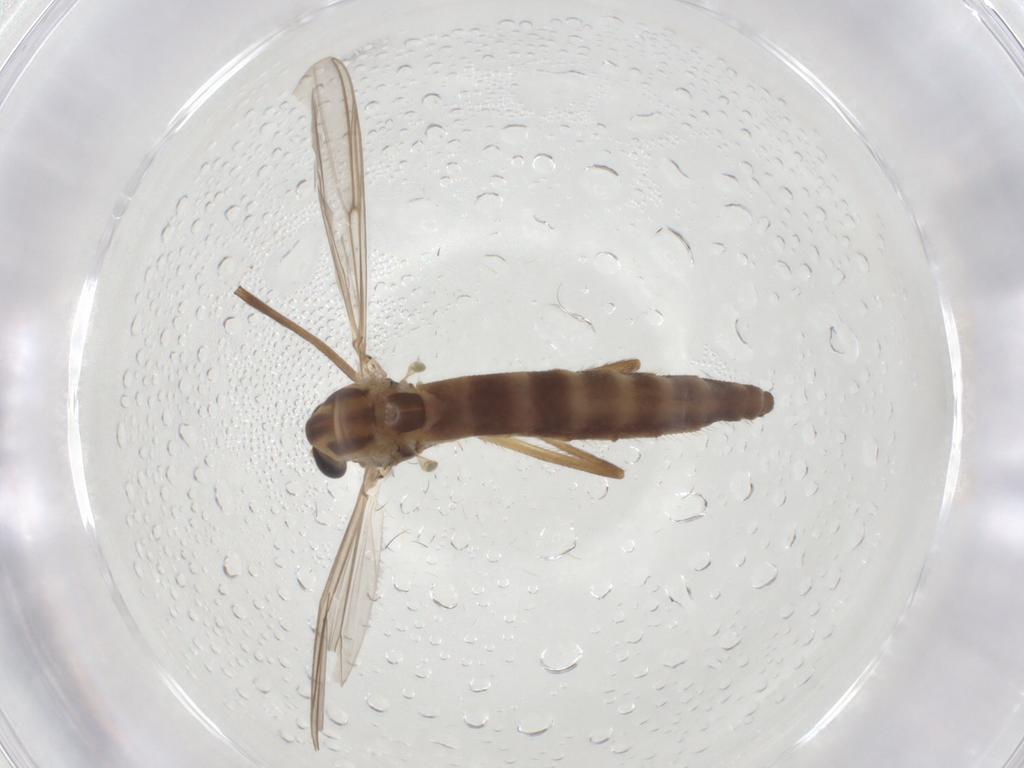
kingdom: Animalia
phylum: Arthropoda
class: Insecta
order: Diptera
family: Chironomidae
